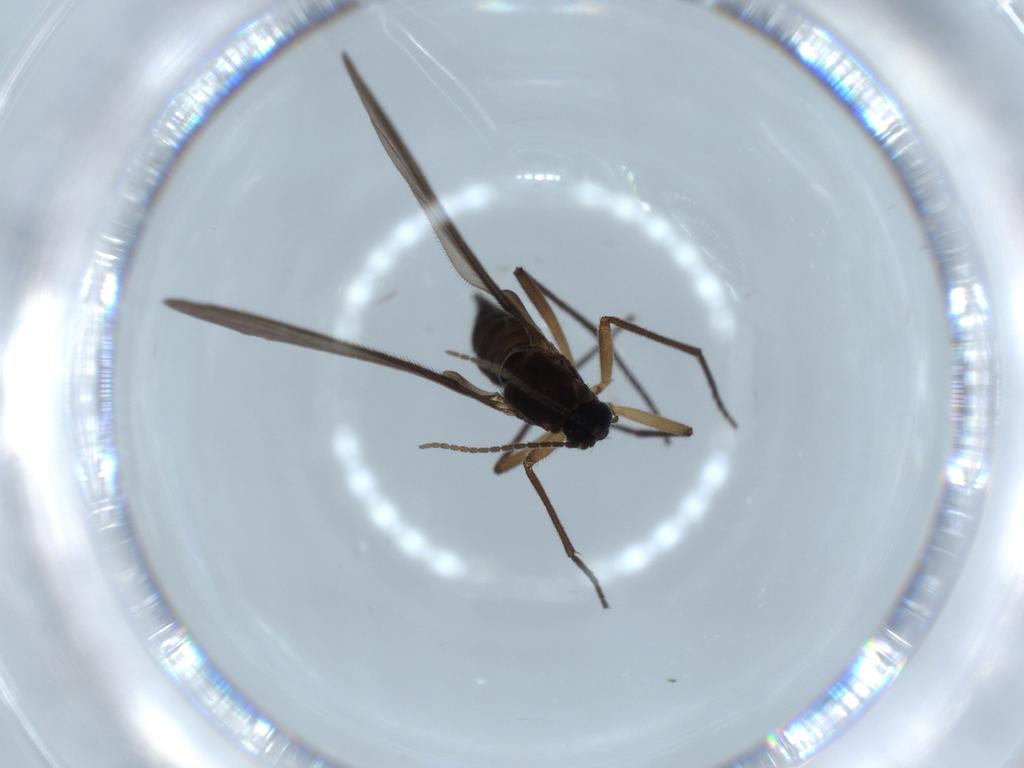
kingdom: Animalia
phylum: Arthropoda
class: Insecta
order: Diptera
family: Sciaridae
